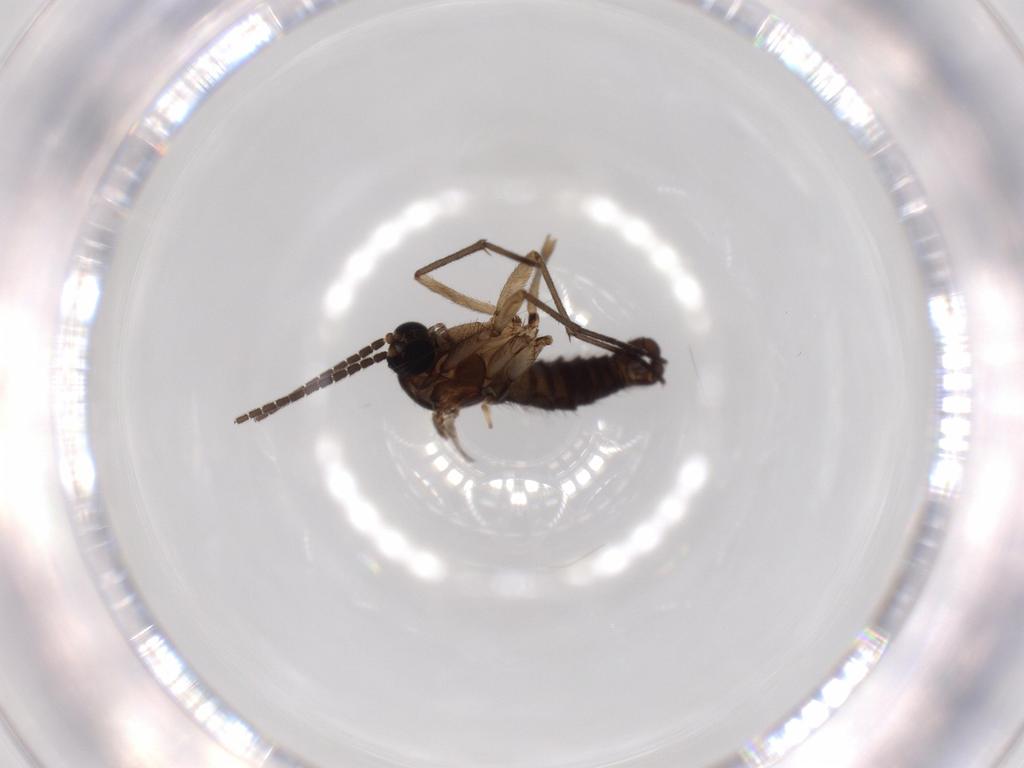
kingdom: Animalia
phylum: Arthropoda
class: Insecta
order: Diptera
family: Sciaridae
